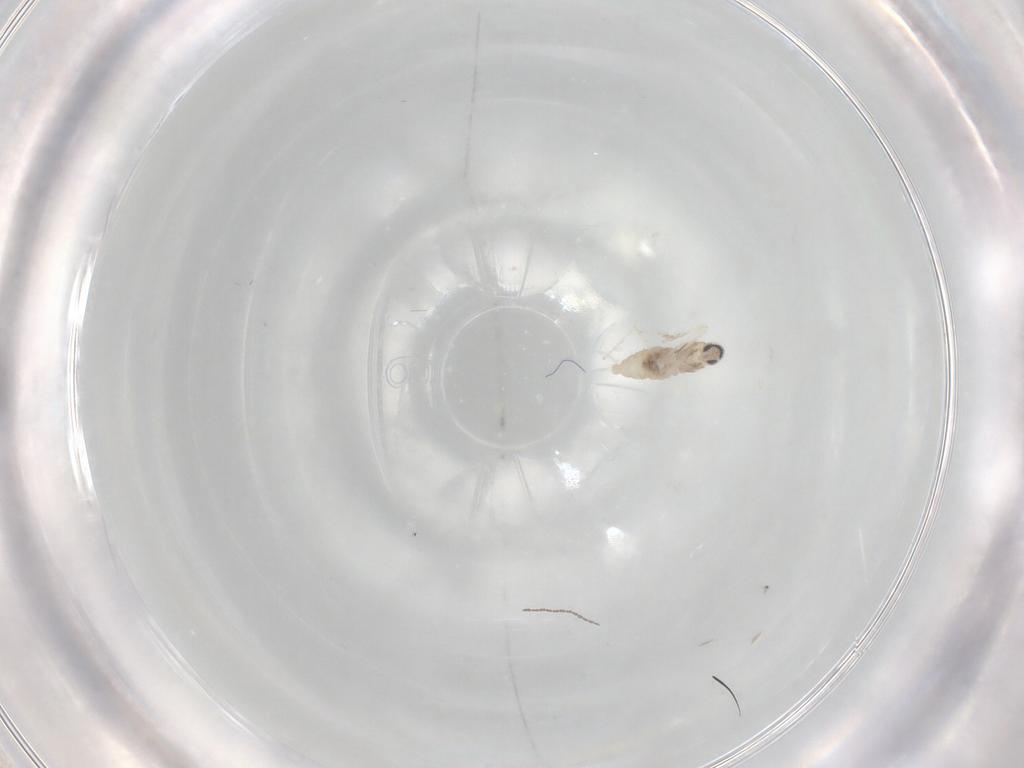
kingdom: Animalia
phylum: Arthropoda
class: Insecta
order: Diptera
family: Cecidomyiidae
